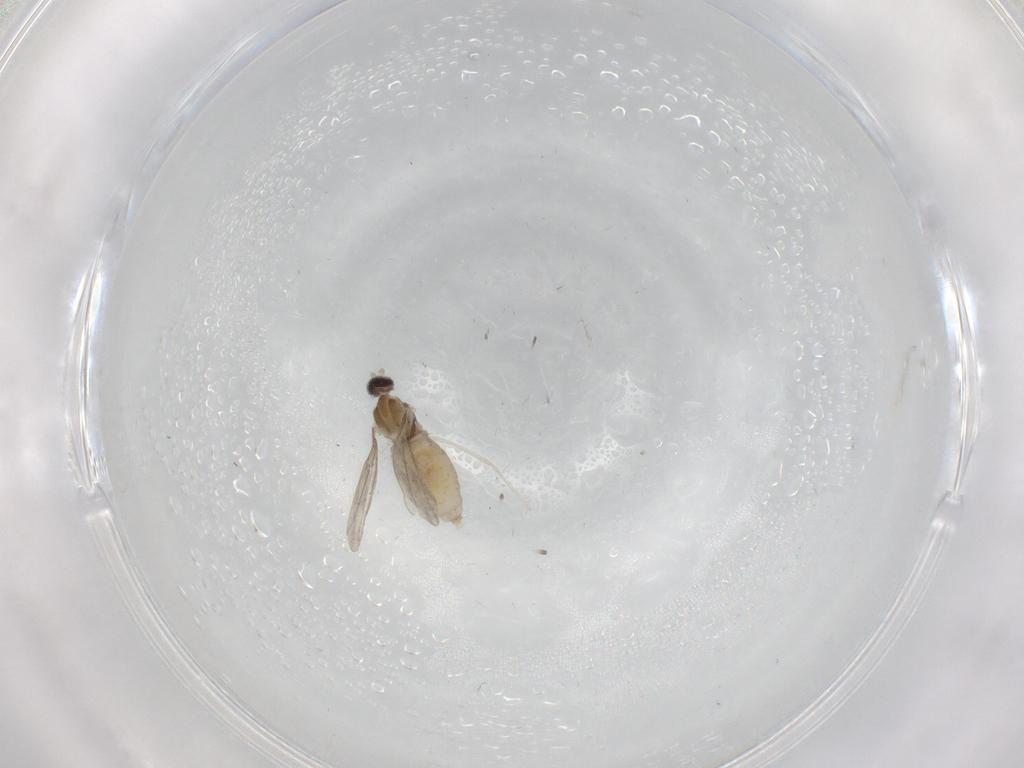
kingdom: Animalia
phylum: Arthropoda
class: Insecta
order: Diptera
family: Cecidomyiidae
